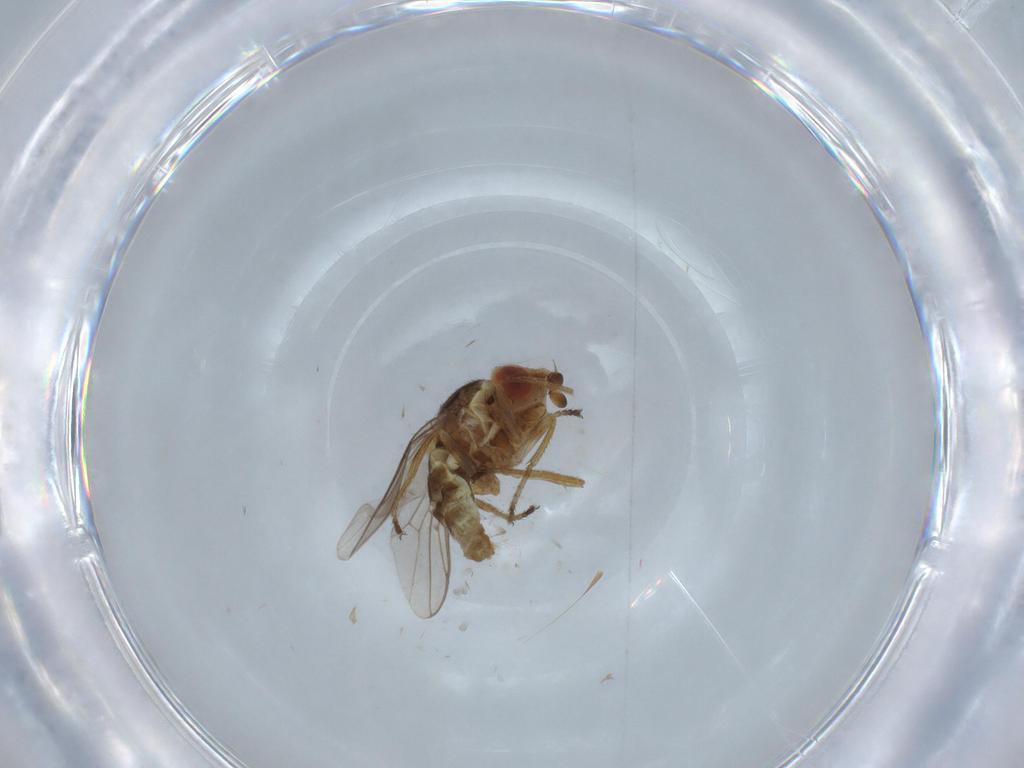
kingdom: Animalia
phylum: Arthropoda
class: Insecta
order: Diptera
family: Chloropidae
